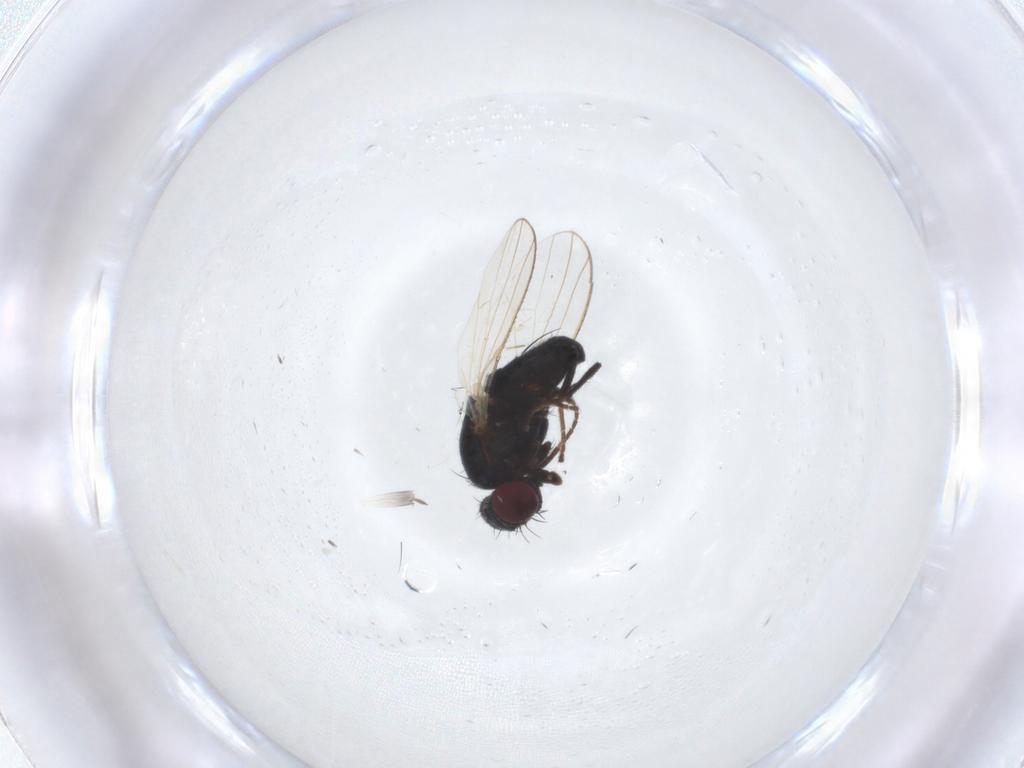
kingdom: Animalia
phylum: Arthropoda
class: Insecta
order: Diptera
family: Carnidae
